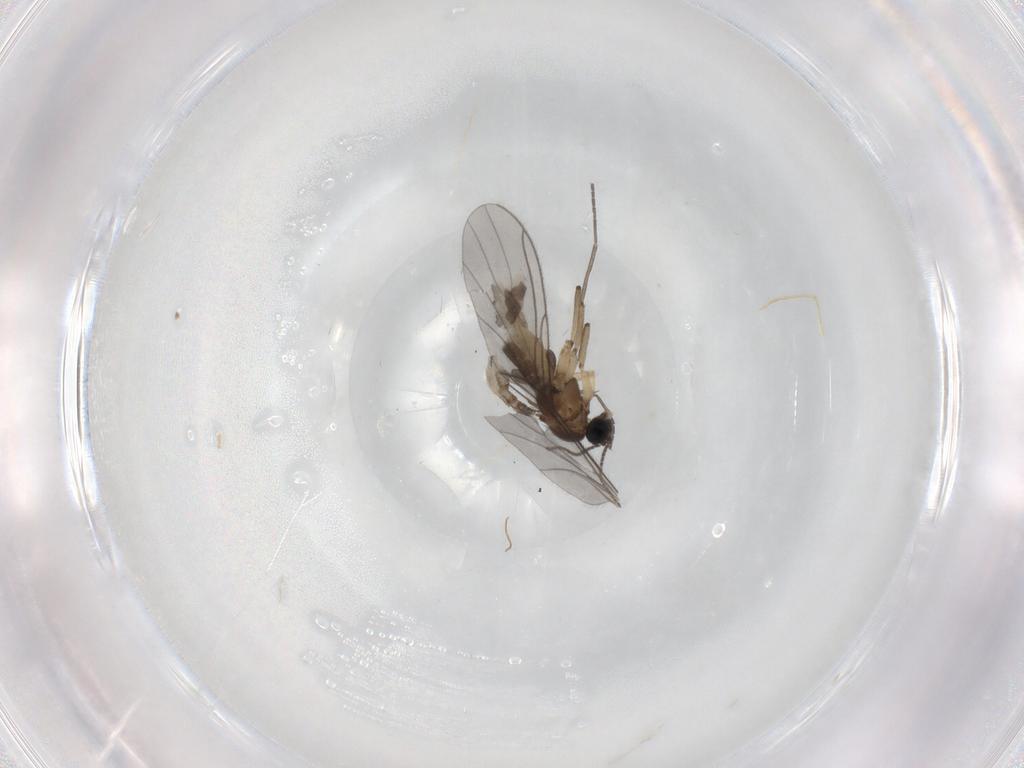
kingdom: Animalia
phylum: Arthropoda
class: Insecta
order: Diptera
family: Sciaridae
